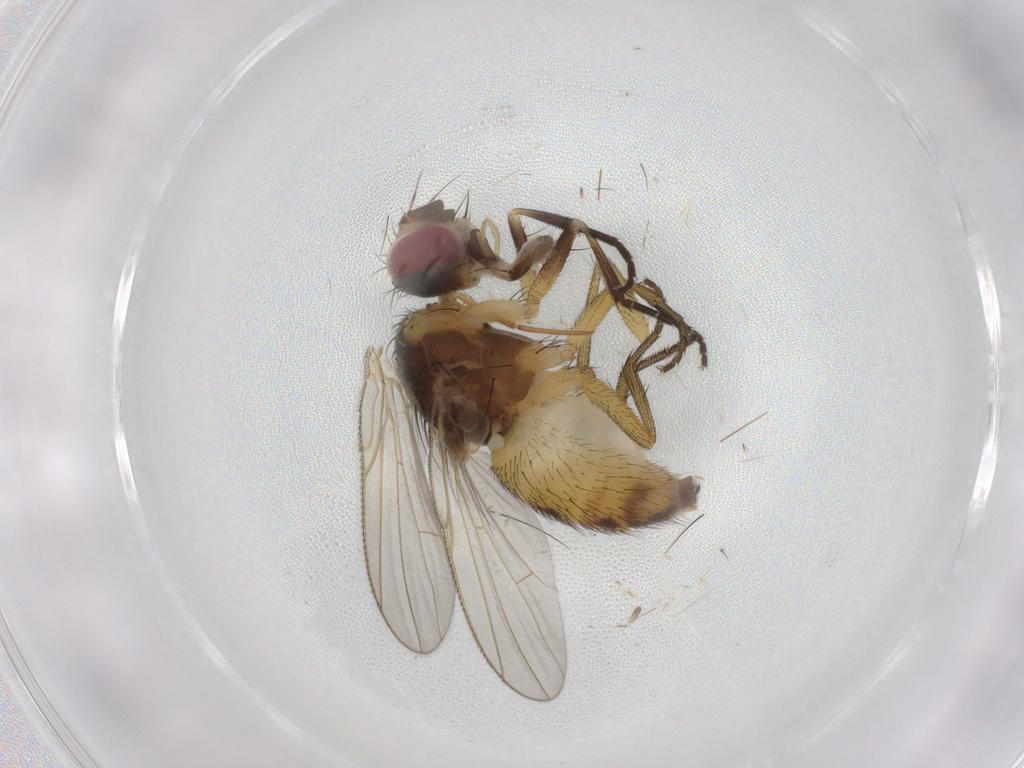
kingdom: Animalia
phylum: Arthropoda
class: Insecta
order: Diptera
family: Muscidae
